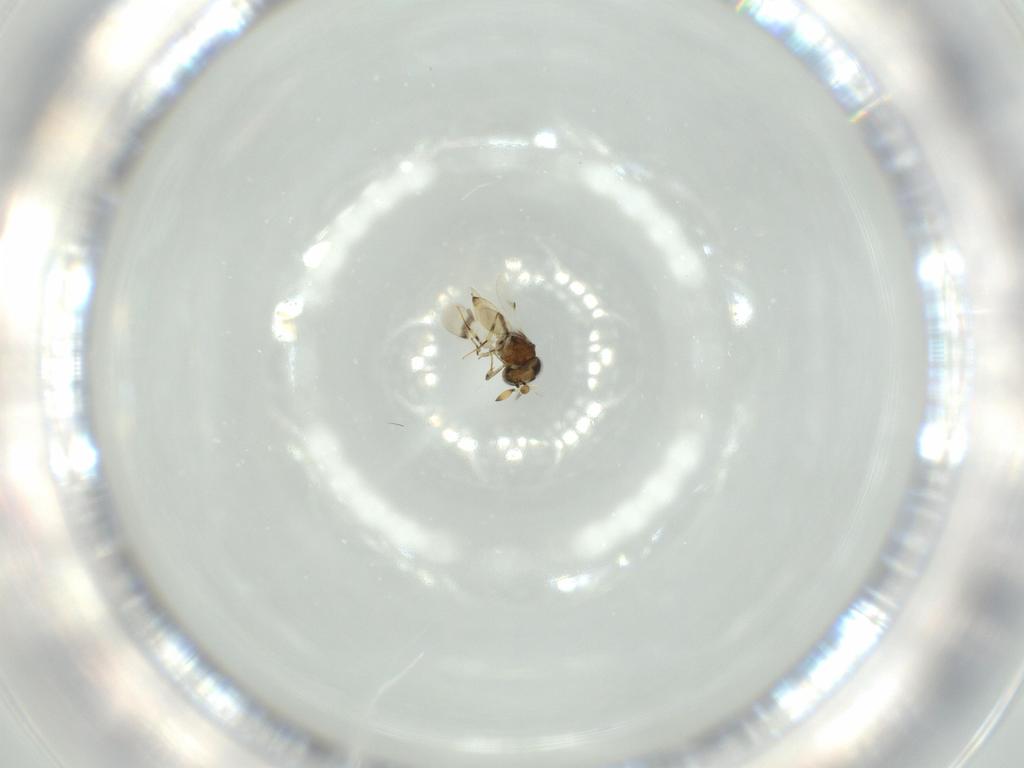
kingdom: Animalia
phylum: Arthropoda
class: Insecta
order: Hymenoptera
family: Scelionidae
